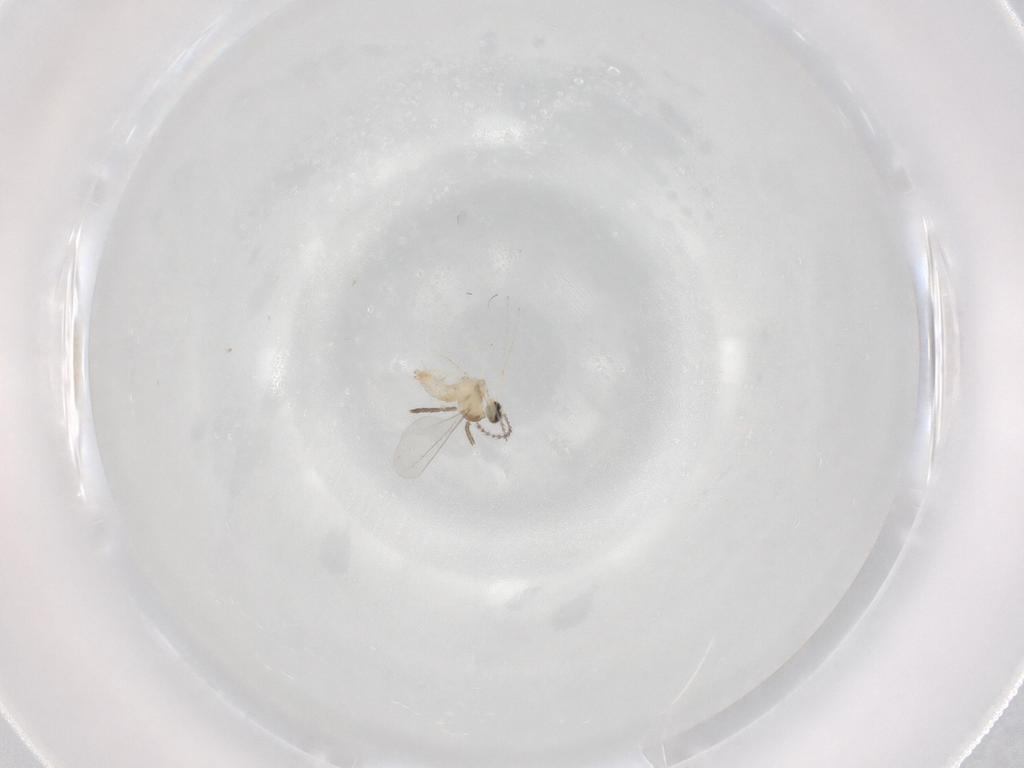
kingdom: Animalia
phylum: Arthropoda
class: Insecta
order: Diptera
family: Cecidomyiidae
